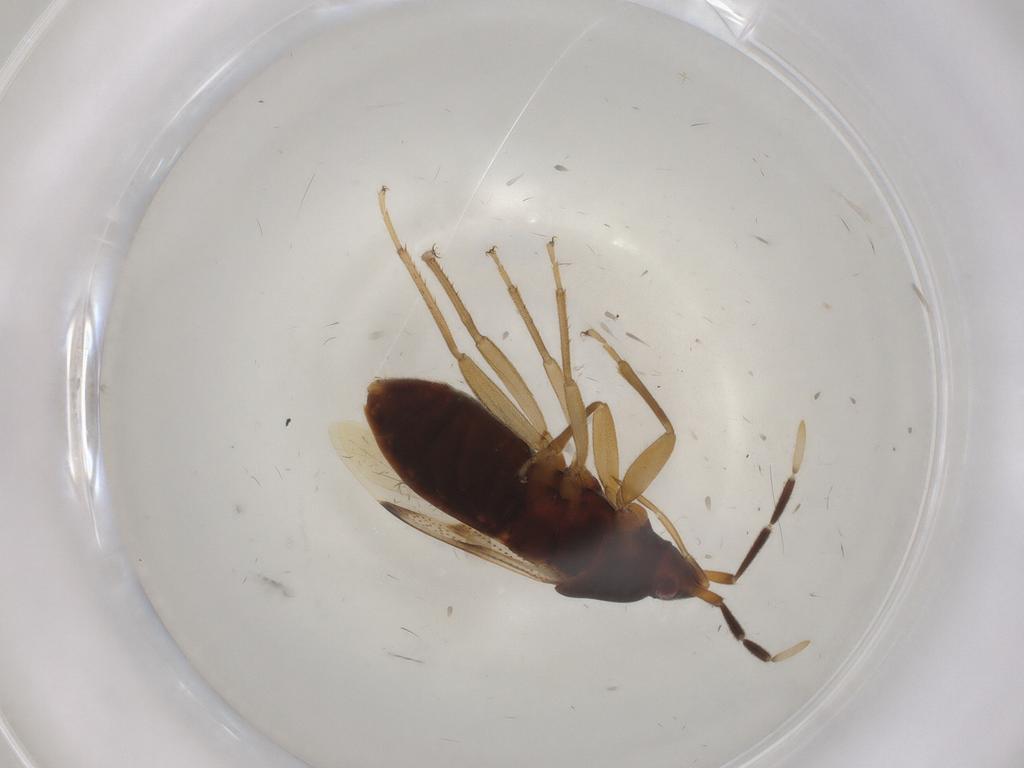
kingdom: Animalia
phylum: Arthropoda
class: Insecta
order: Hemiptera
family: Rhyparochromidae
